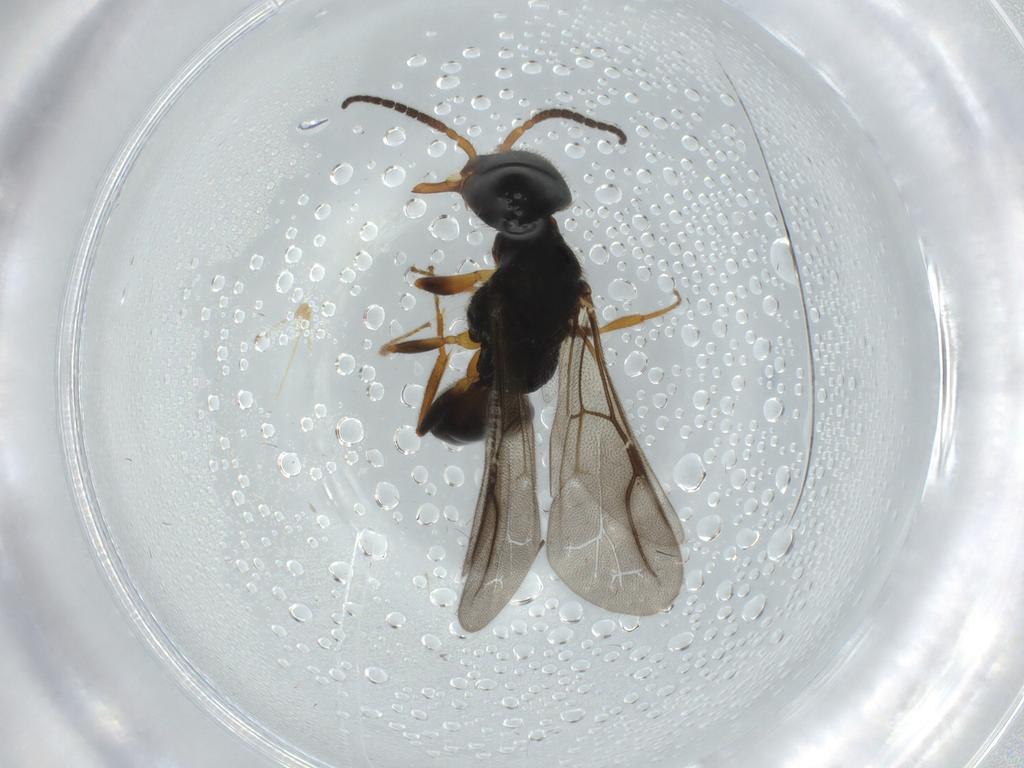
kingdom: Animalia
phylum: Arthropoda
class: Insecta
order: Hymenoptera
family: Bethylidae
